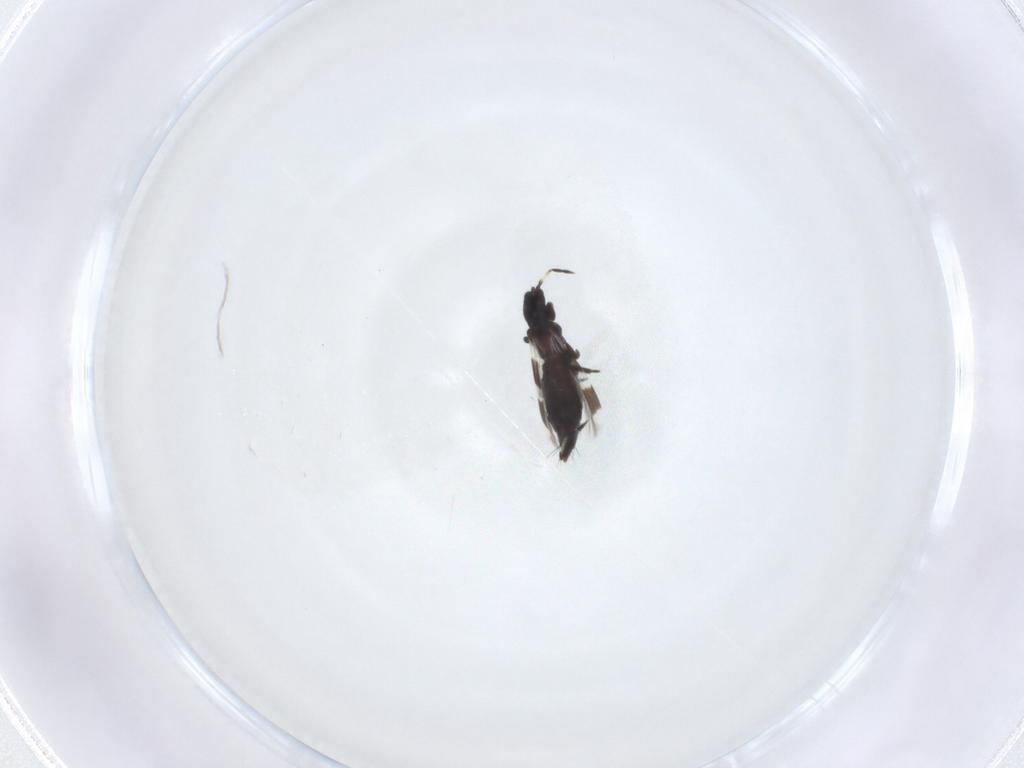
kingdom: Animalia
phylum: Arthropoda
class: Insecta
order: Thysanoptera
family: Aeolothripidae
